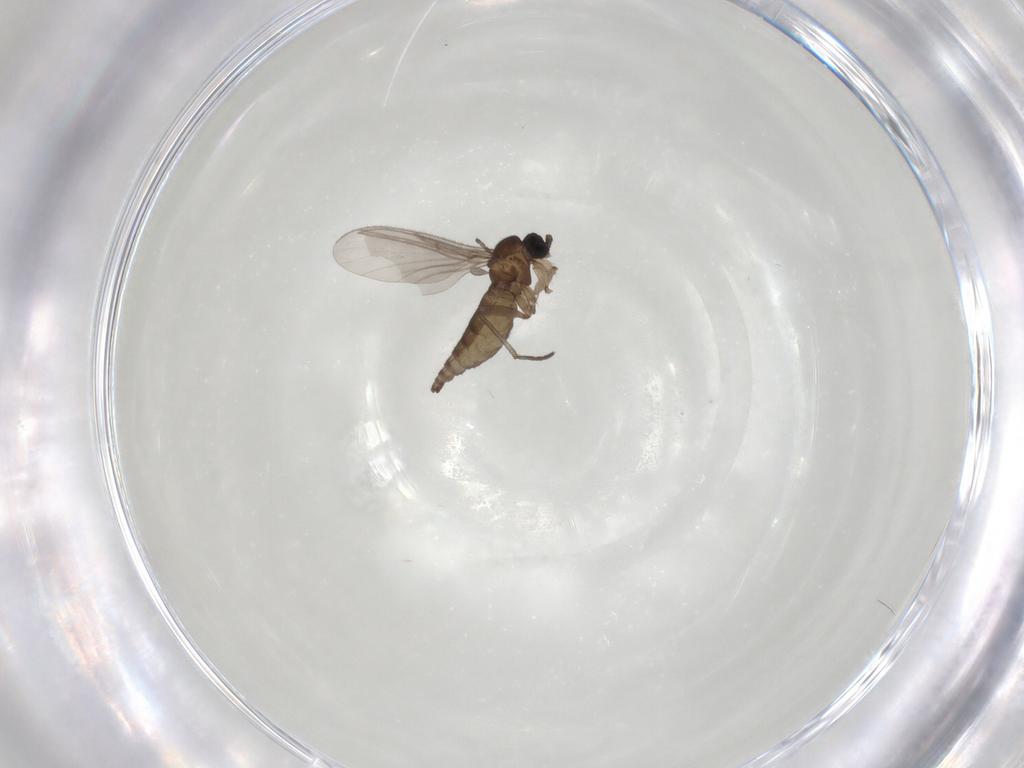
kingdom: Animalia
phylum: Arthropoda
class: Insecta
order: Diptera
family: Sciaridae
